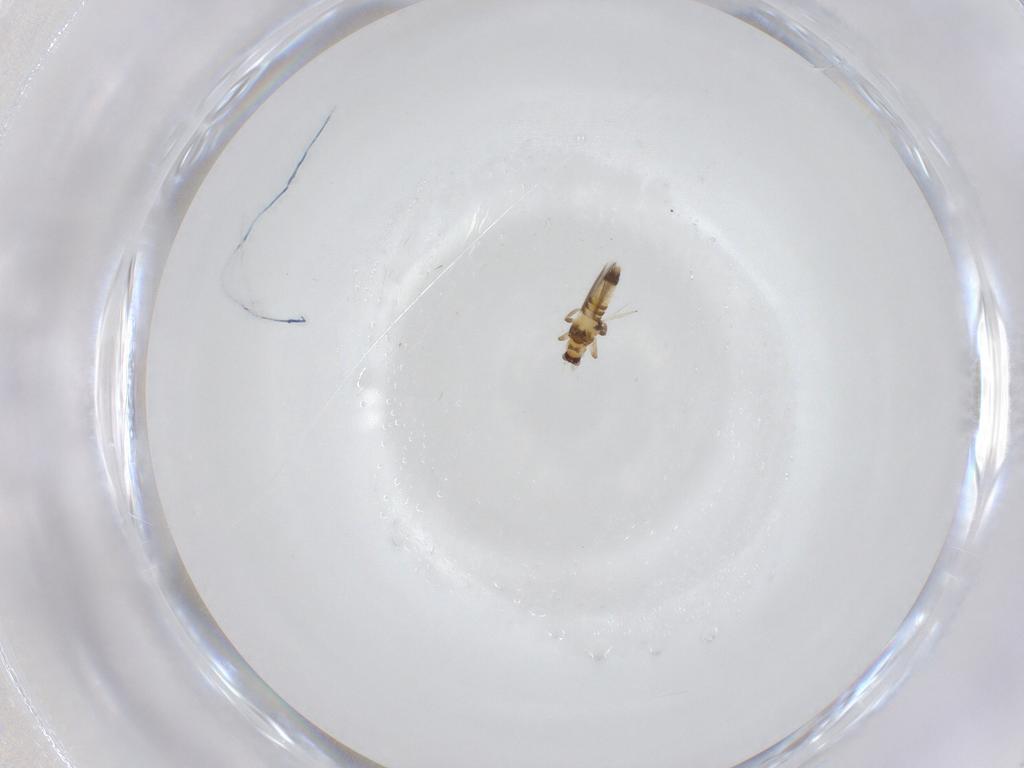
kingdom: Animalia
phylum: Arthropoda
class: Insecta
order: Thysanoptera
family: Thripidae
